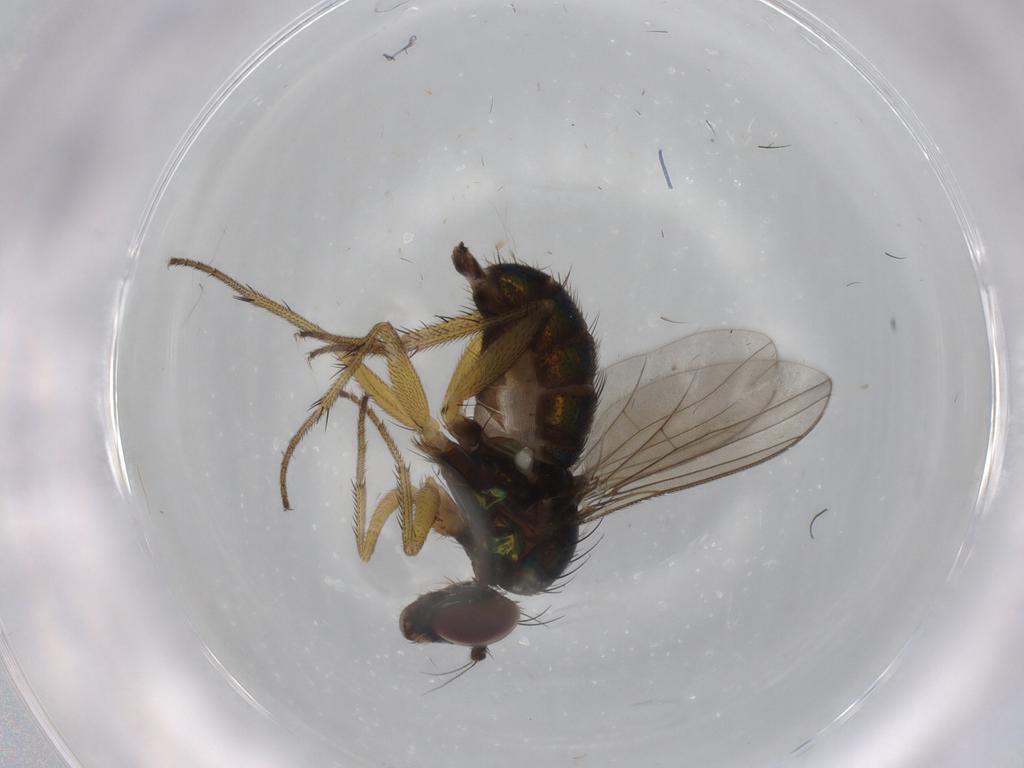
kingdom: Animalia
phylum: Arthropoda
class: Insecta
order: Diptera
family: Dolichopodidae
